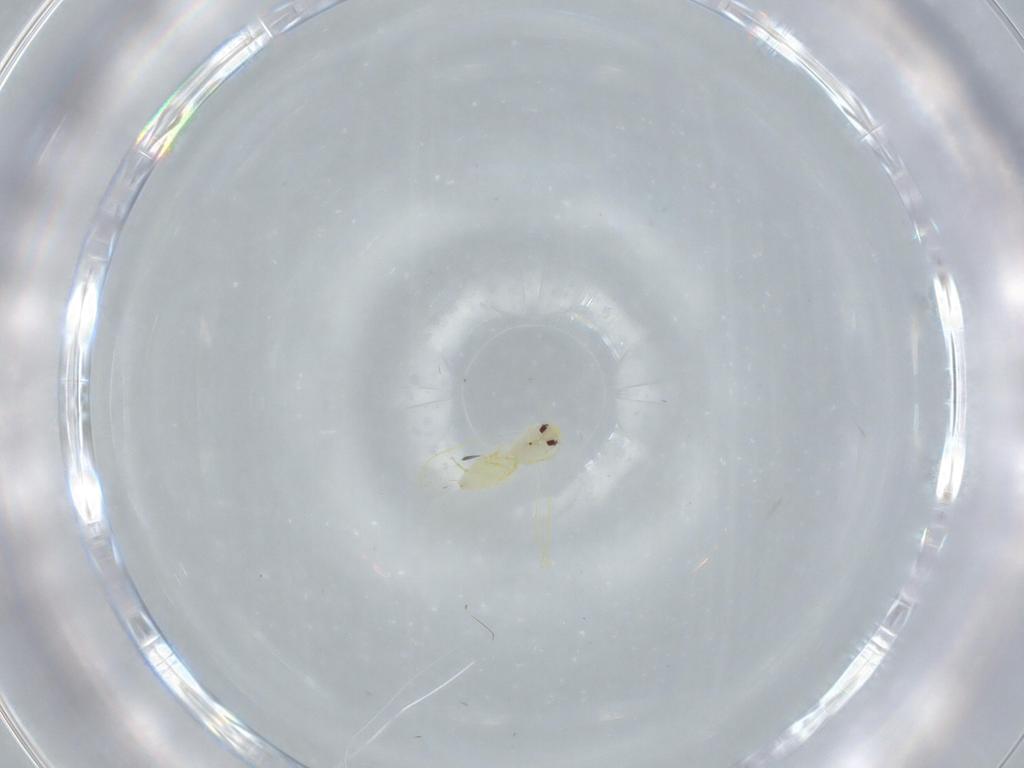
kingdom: Animalia
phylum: Arthropoda
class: Insecta
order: Hemiptera
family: Aleyrodidae
